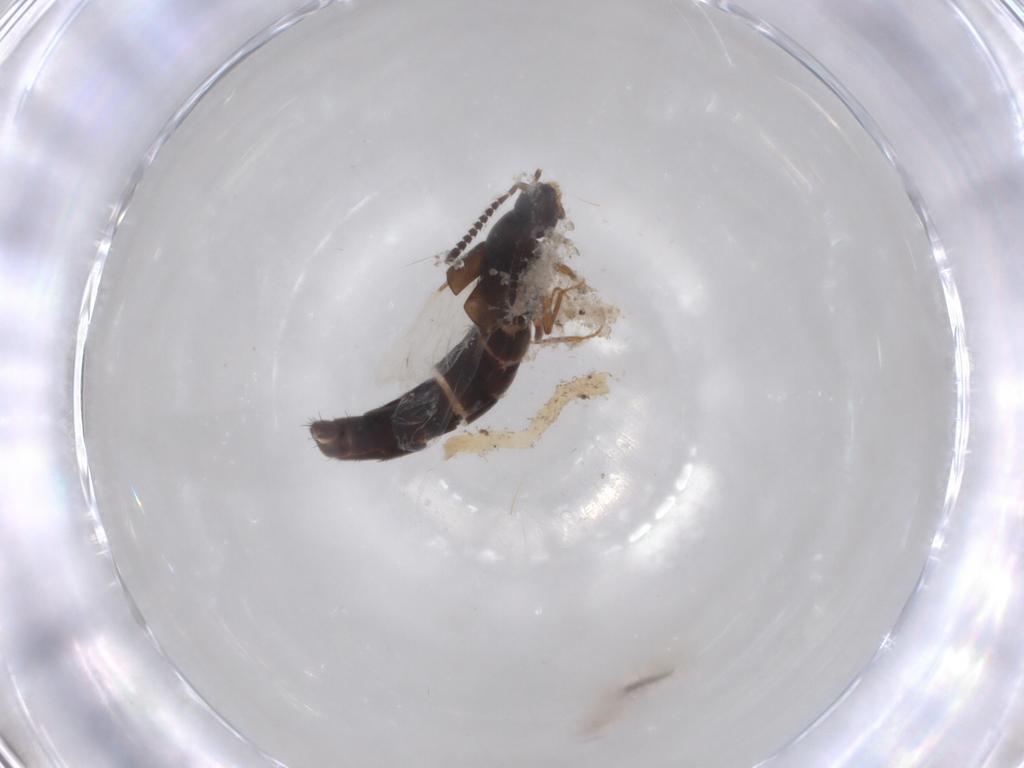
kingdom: Animalia
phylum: Arthropoda
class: Insecta
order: Coleoptera
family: Staphylinidae
